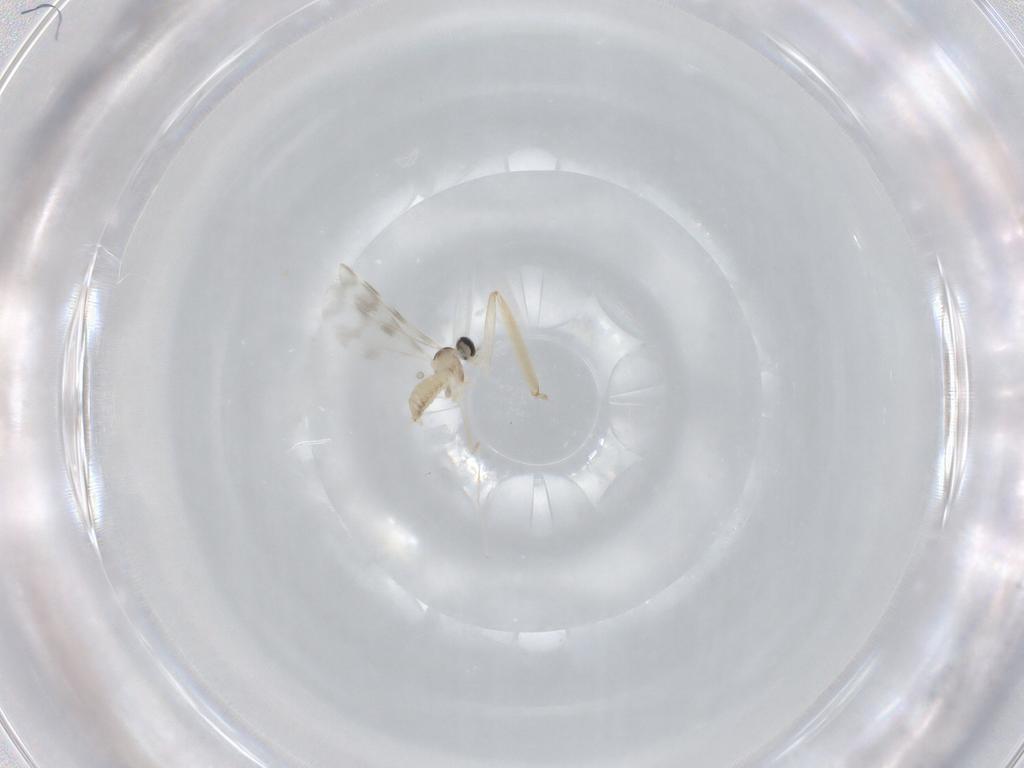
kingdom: Animalia
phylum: Arthropoda
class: Insecta
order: Diptera
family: Cecidomyiidae
